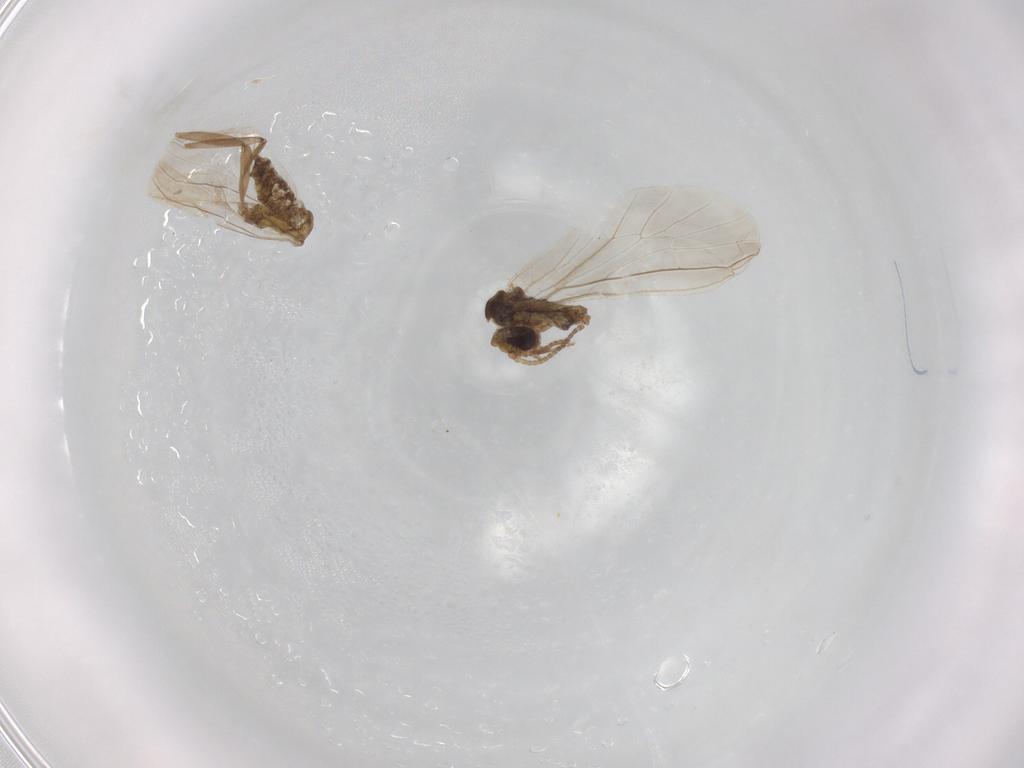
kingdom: Animalia
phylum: Arthropoda
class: Insecta
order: Neuroptera
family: Coniopterygidae
